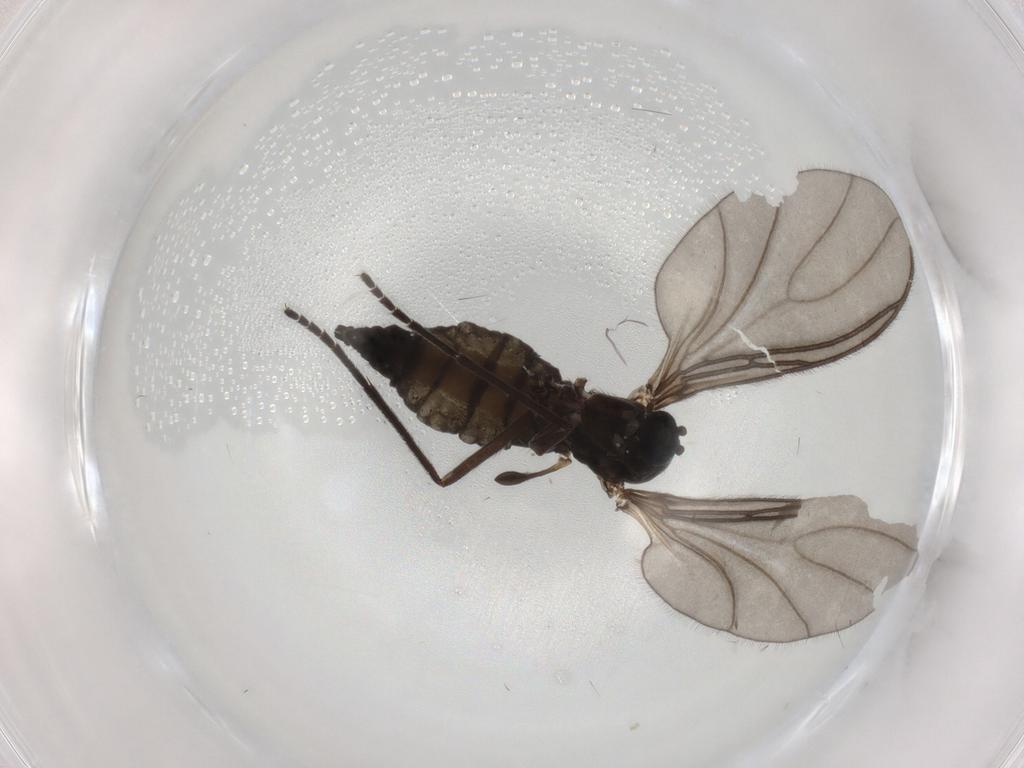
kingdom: Animalia
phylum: Arthropoda
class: Insecta
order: Diptera
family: Sciaridae
